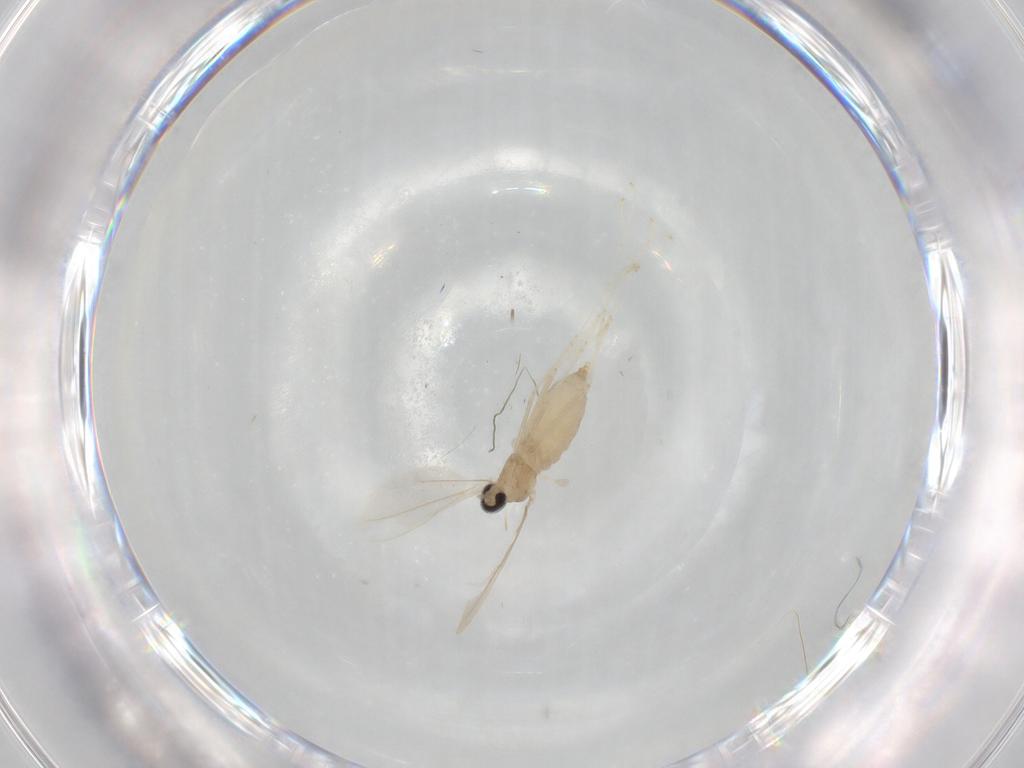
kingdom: Animalia
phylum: Arthropoda
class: Insecta
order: Diptera
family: Cecidomyiidae
